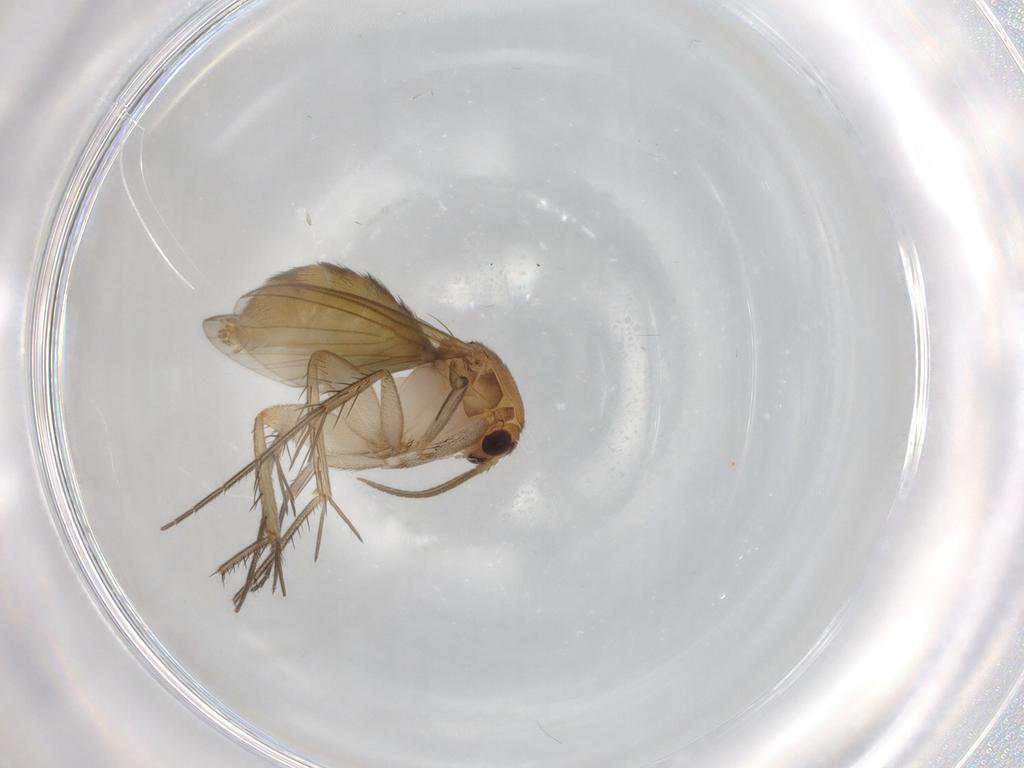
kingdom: Animalia
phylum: Arthropoda
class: Insecta
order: Diptera
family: Mycetophilidae
